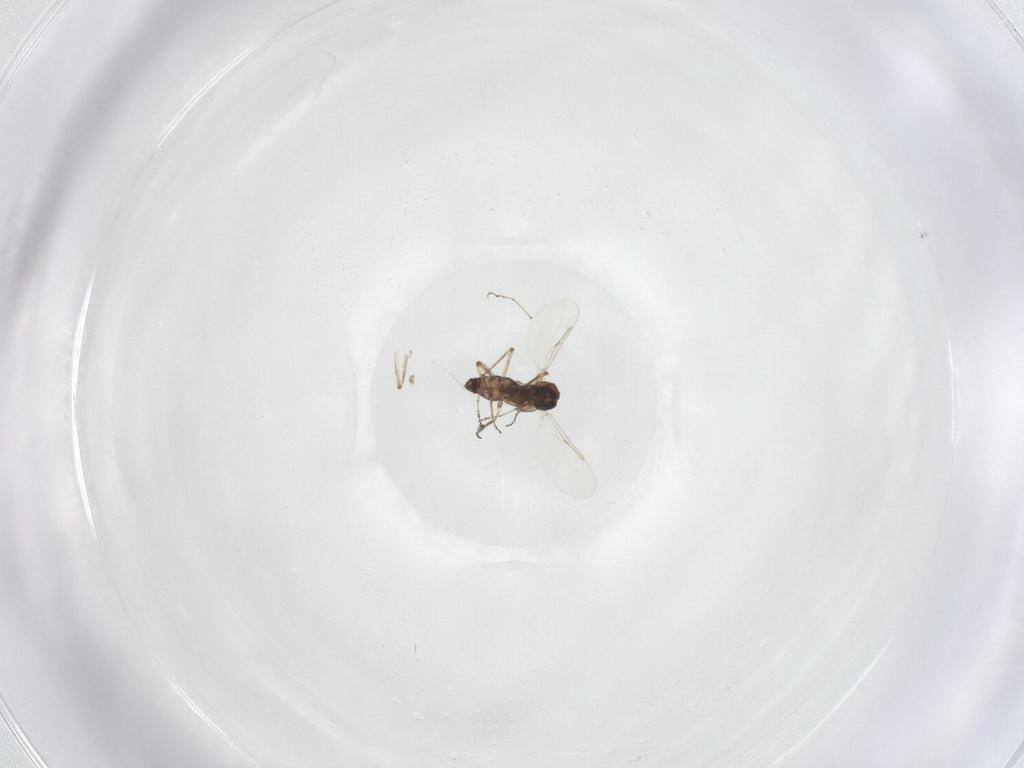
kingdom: Animalia
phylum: Arthropoda
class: Insecta
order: Diptera
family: Ceratopogonidae
